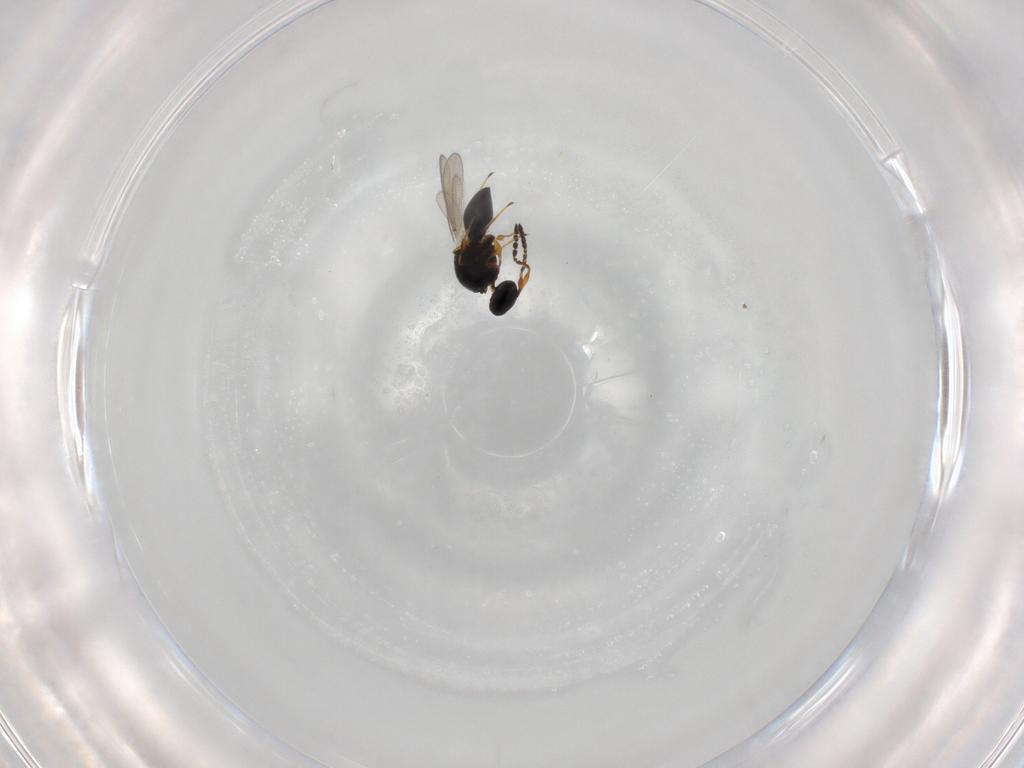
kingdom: Animalia
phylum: Arthropoda
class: Insecta
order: Hymenoptera
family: Platygastridae
